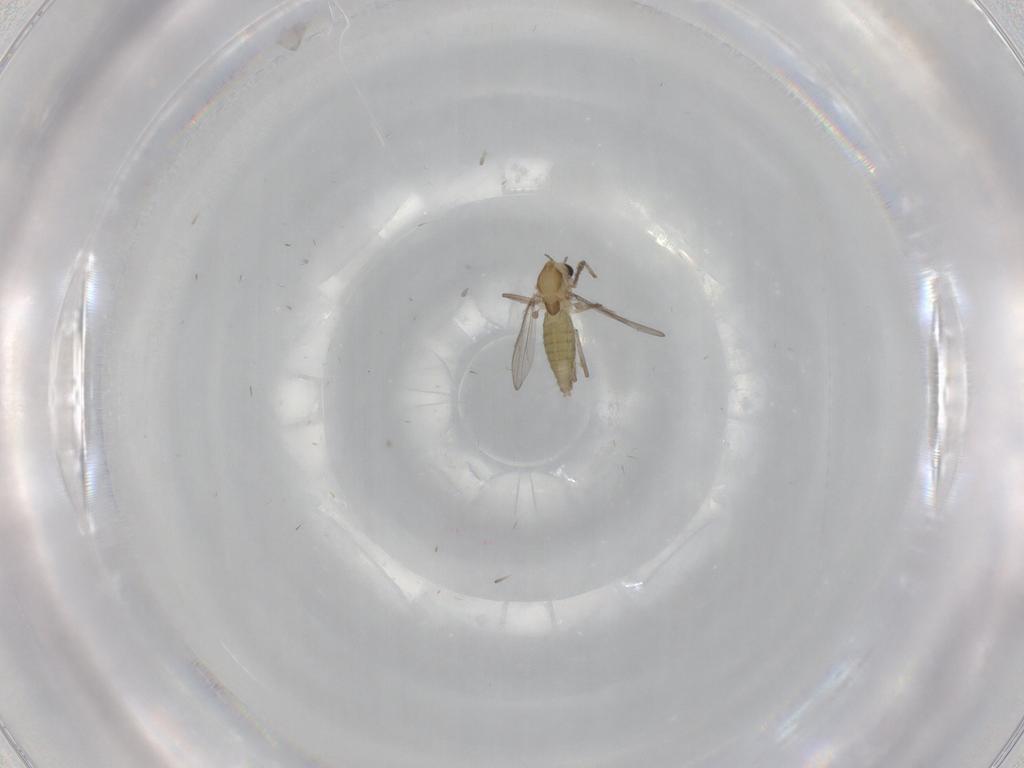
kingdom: Animalia
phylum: Arthropoda
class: Insecta
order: Diptera
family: Chironomidae
